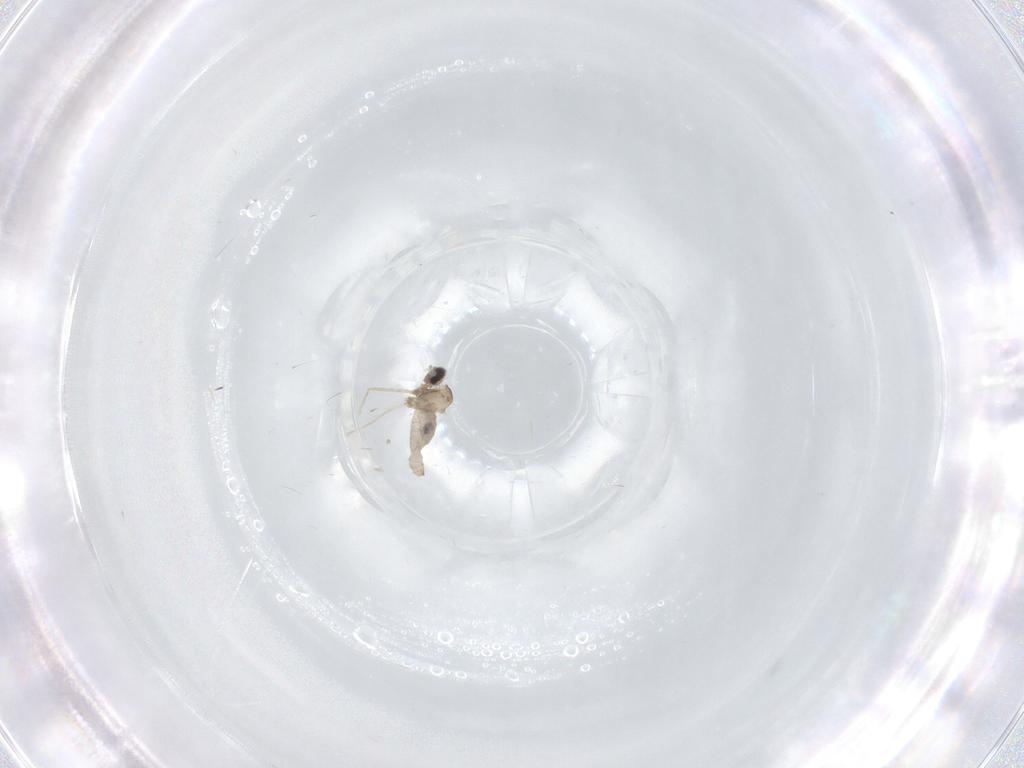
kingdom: Animalia
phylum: Arthropoda
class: Insecta
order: Diptera
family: Cecidomyiidae
